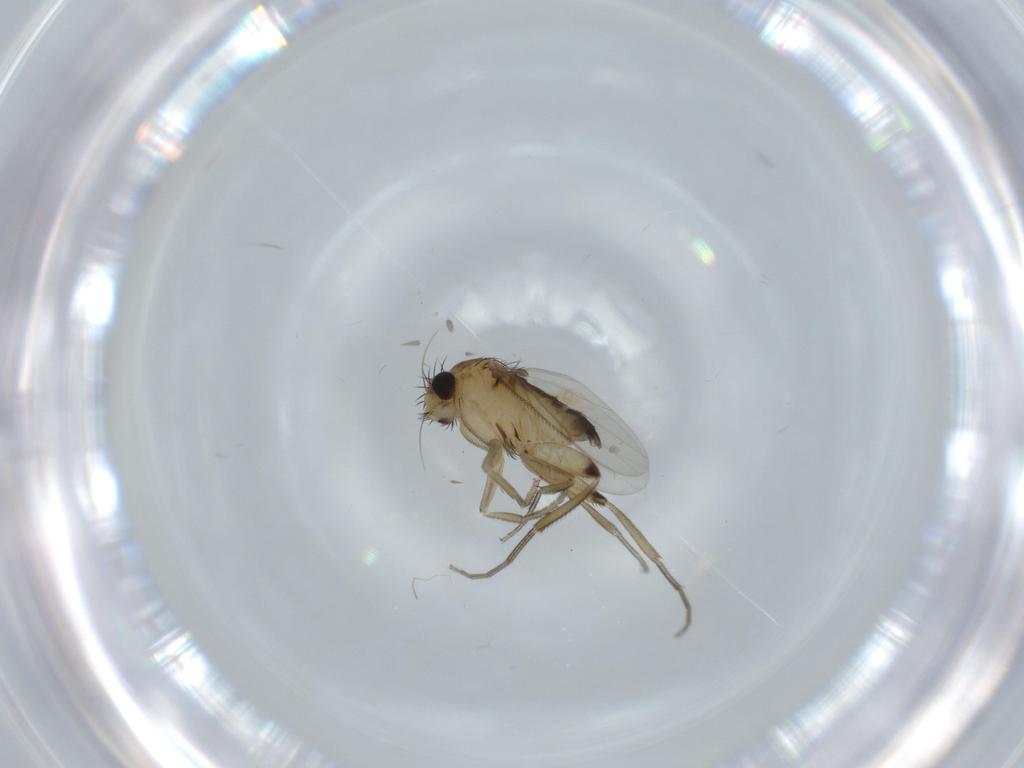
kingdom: Animalia
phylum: Arthropoda
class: Insecta
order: Diptera
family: Phoridae
